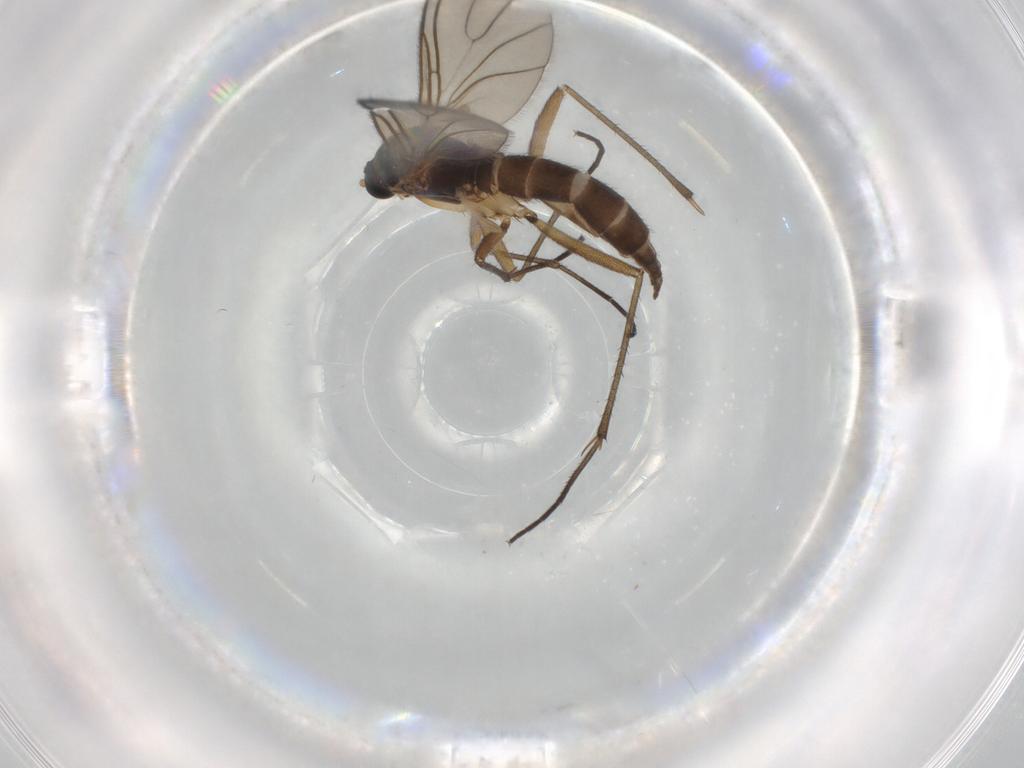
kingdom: Animalia
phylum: Arthropoda
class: Insecta
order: Diptera
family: Sciaridae
